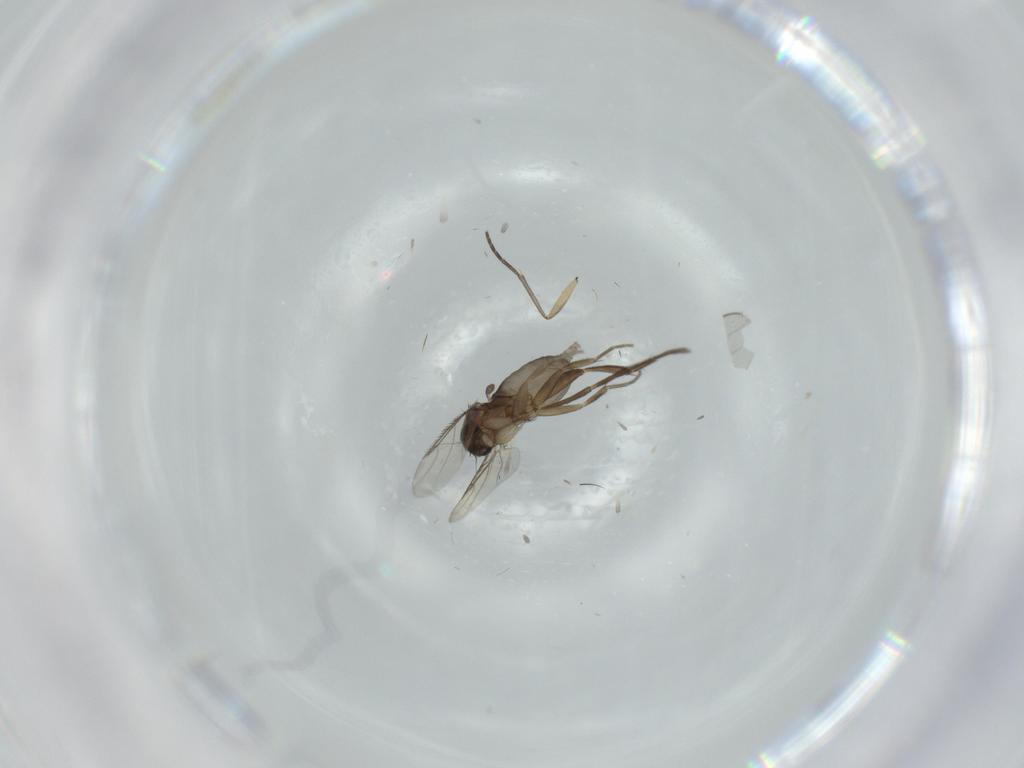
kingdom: Animalia
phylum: Arthropoda
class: Insecta
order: Diptera
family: Phoridae
